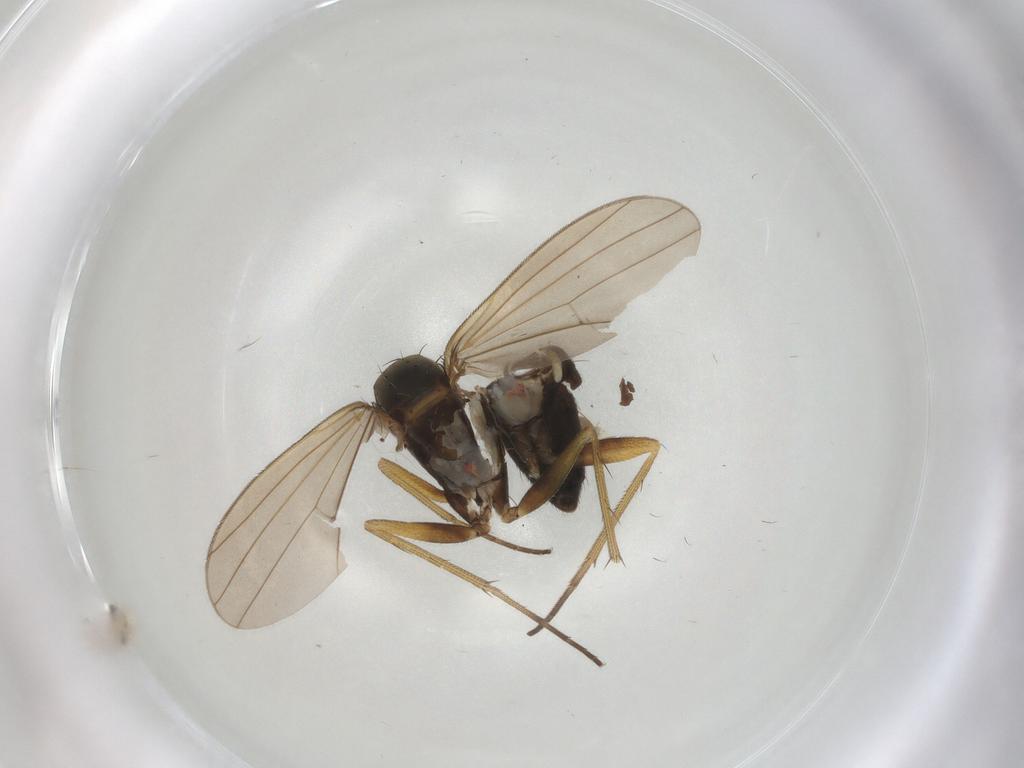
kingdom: Animalia
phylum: Arthropoda
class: Insecta
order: Diptera
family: Dolichopodidae
